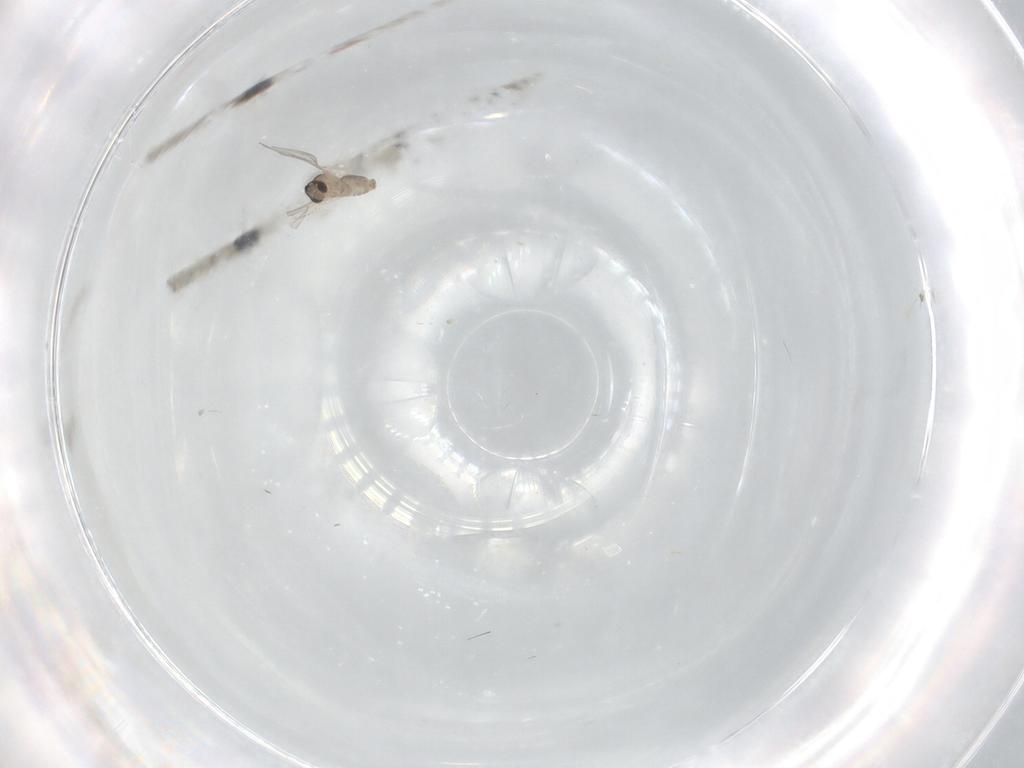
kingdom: Animalia
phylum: Arthropoda
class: Insecta
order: Diptera
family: Cecidomyiidae
